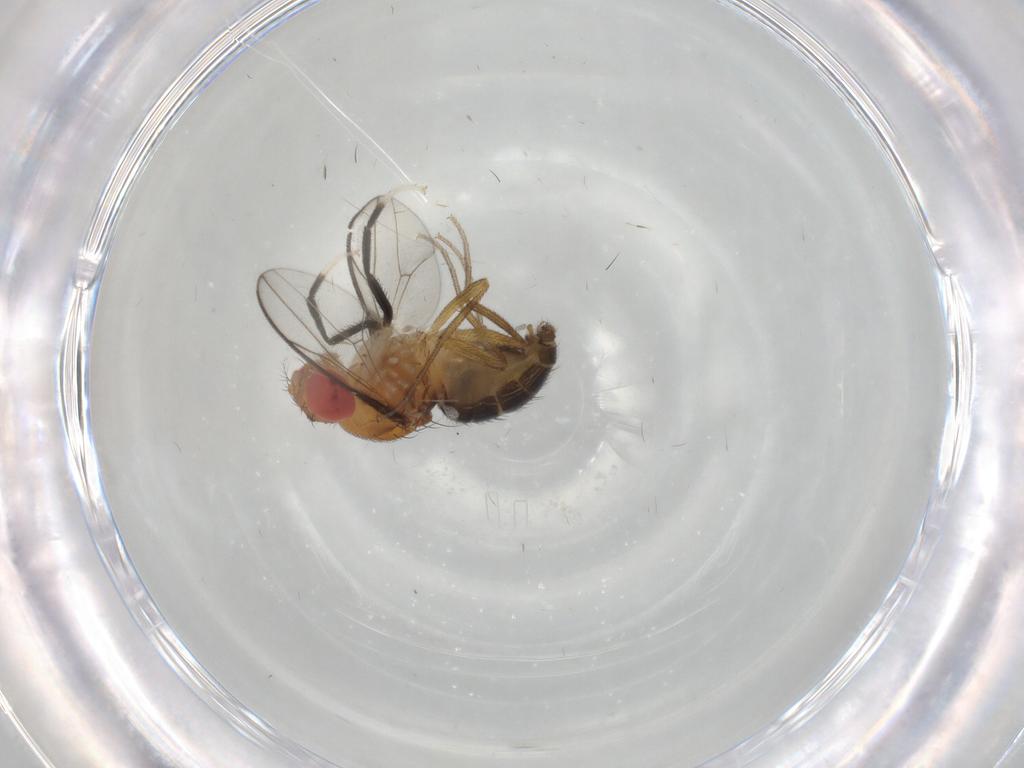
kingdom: Animalia
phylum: Arthropoda
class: Insecta
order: Diptera
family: Drosophilidae
